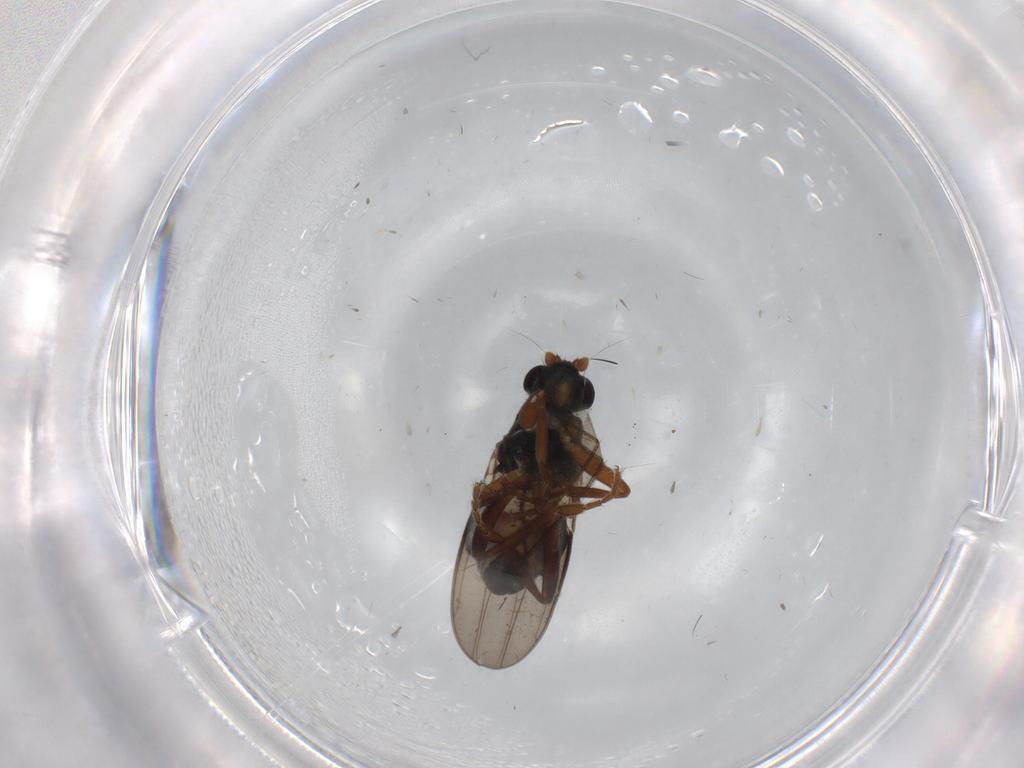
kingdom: Animalia
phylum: Arthropoda
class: Insecta
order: Diptera
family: Sciaridae
